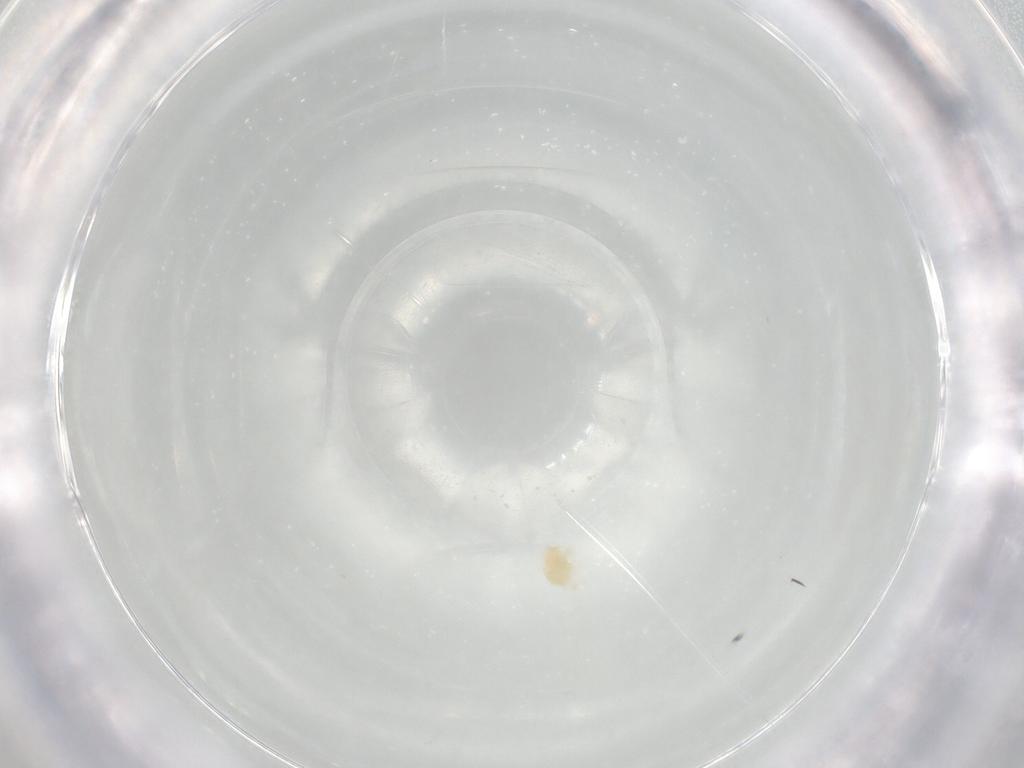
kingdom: Animalia
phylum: Arthropoda
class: Arachnida
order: Trombidiformes
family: Eupodidae
